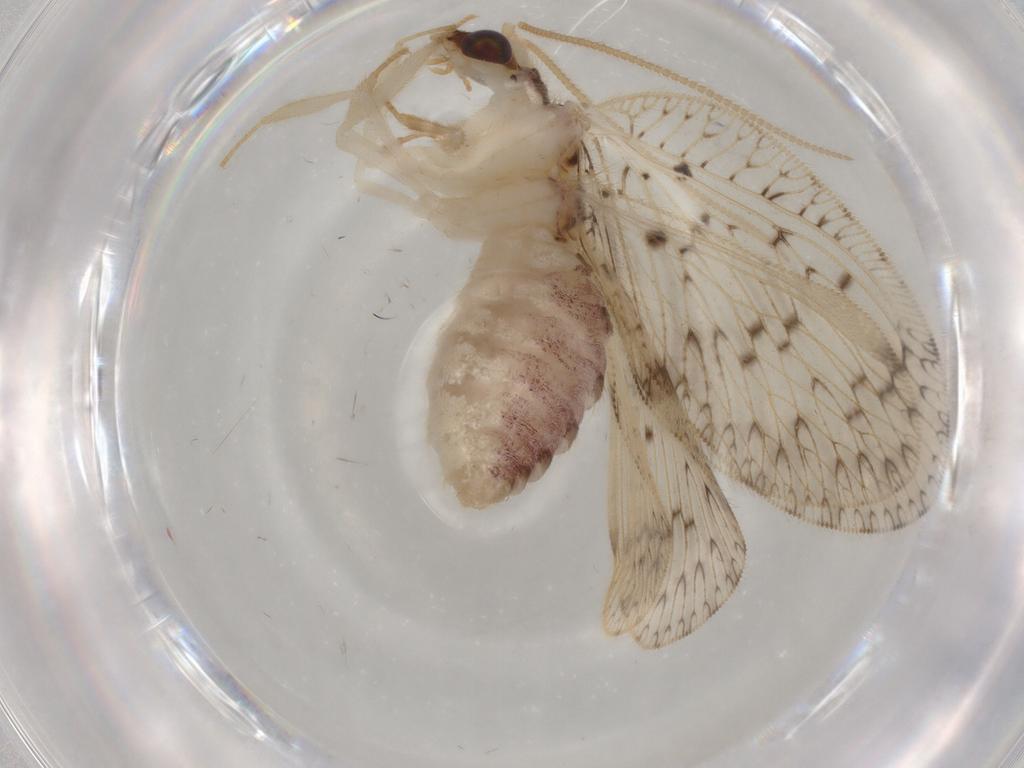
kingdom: Animalia
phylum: Arthropoda
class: Insecta
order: Neuroptera
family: Hemerobiidae
